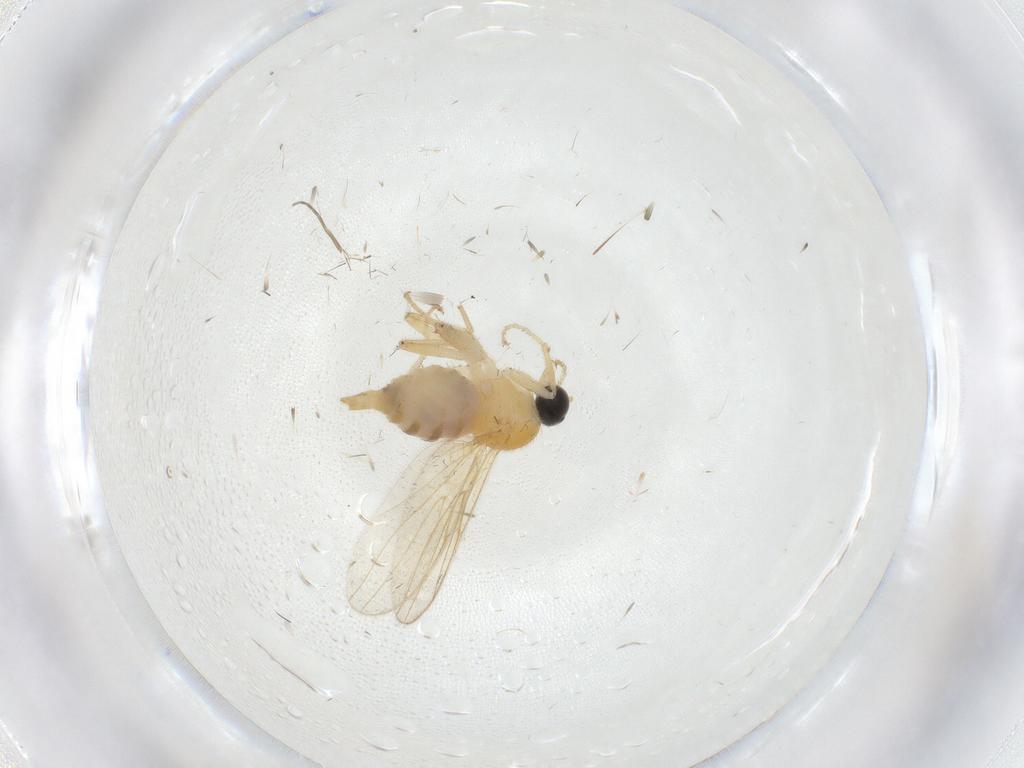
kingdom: Animalia
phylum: Arthropoda
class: Insecta
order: Diptera
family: Limoniidae
